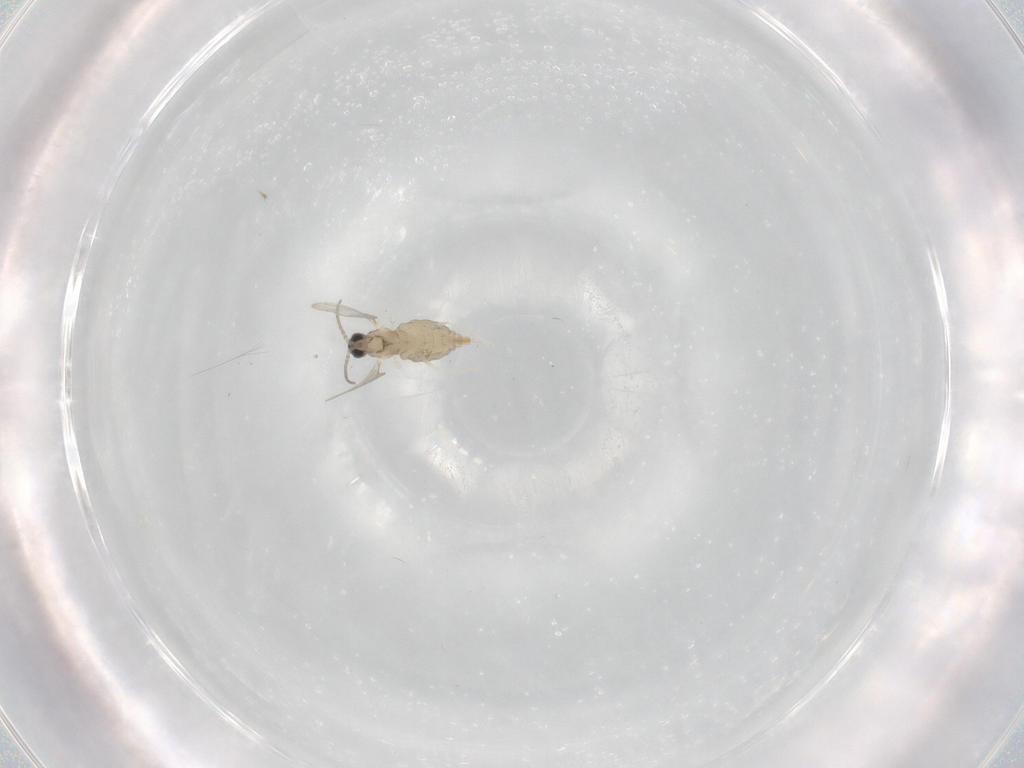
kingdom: Animalia
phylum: Arthropoda
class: Insecta
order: Diptera
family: Cecidomyiidae
